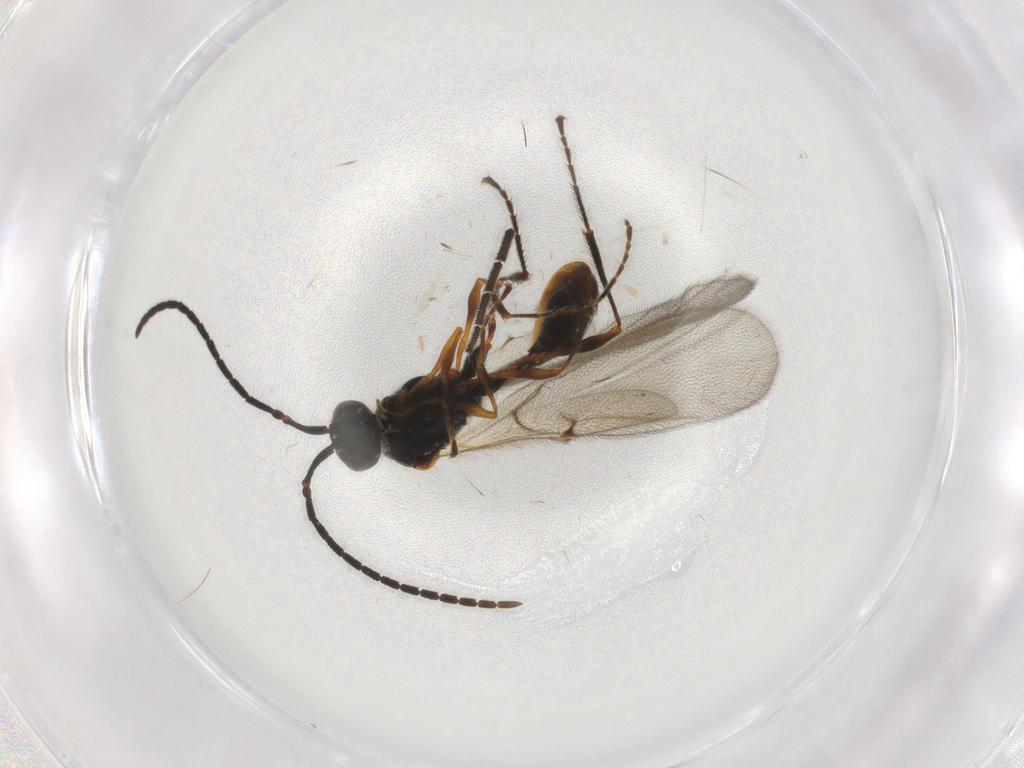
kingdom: Animalia
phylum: Arthropoda
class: Insecta
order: Hymenoptera
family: Diapriidae
